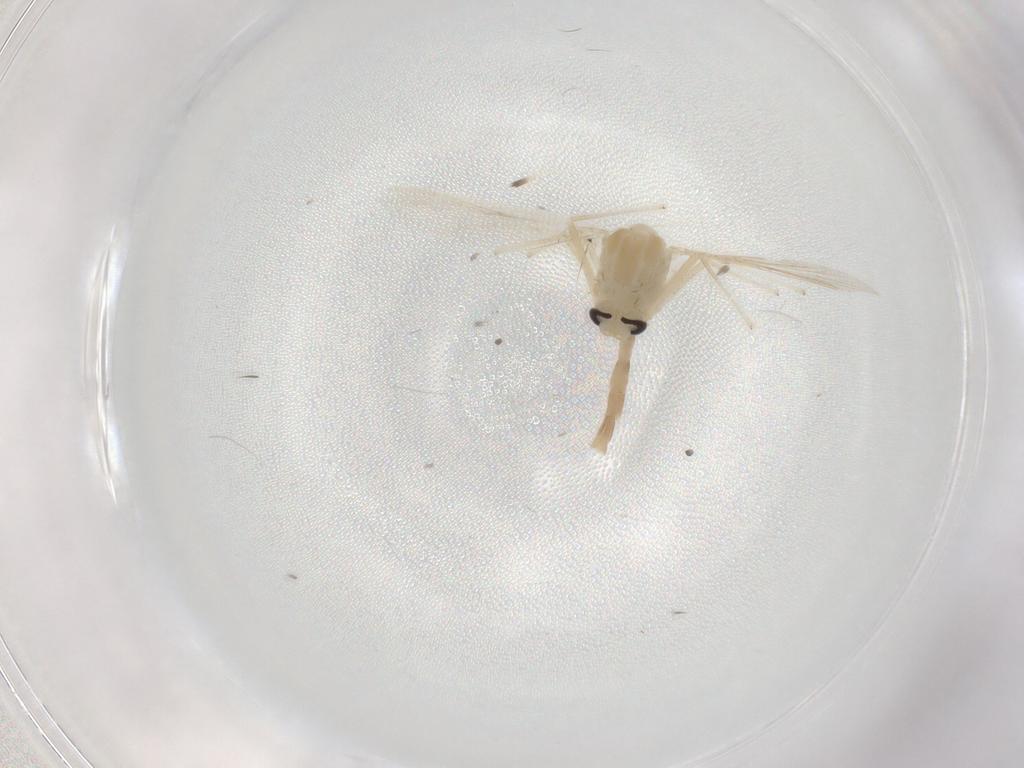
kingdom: Animalia
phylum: Arthropoda
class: Insecta
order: Diptera
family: Chironomidae
